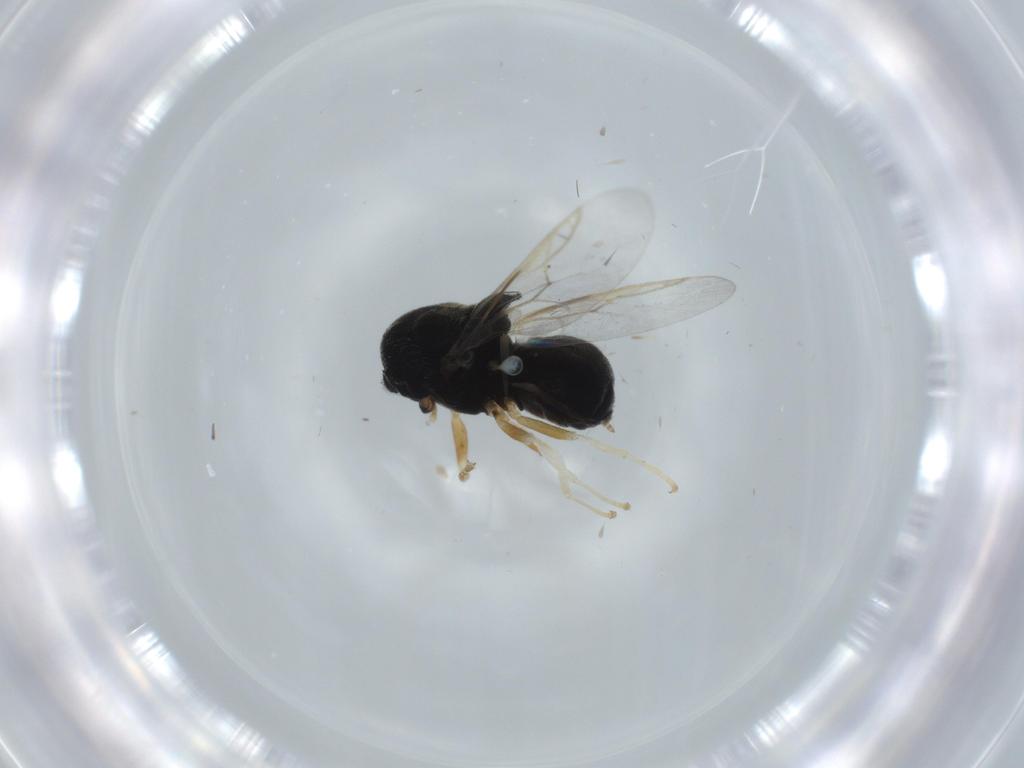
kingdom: Animalia
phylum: Arthropoda
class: Insecta
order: Diptera
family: Stratiomyidae
